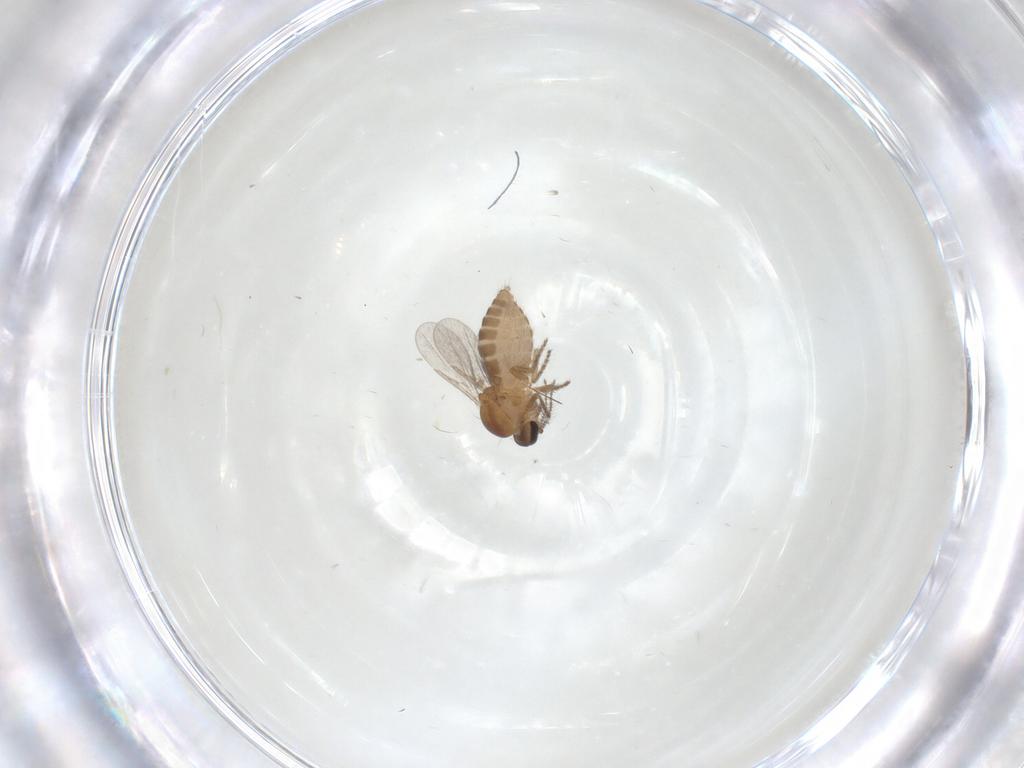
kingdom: Animalia
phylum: Arthropoda
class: Insecta
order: Diptera
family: Ceratopogonidae
